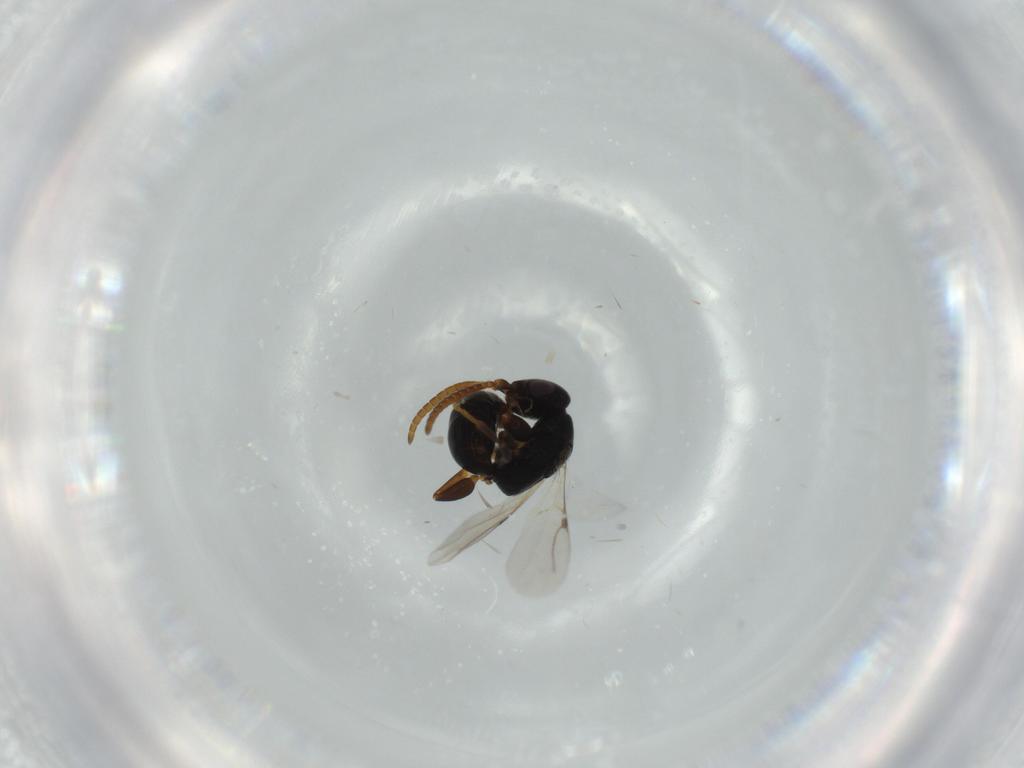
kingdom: Animalia
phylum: Arthropoda
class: Insecta
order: Hymenoptera
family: Bethylidae
